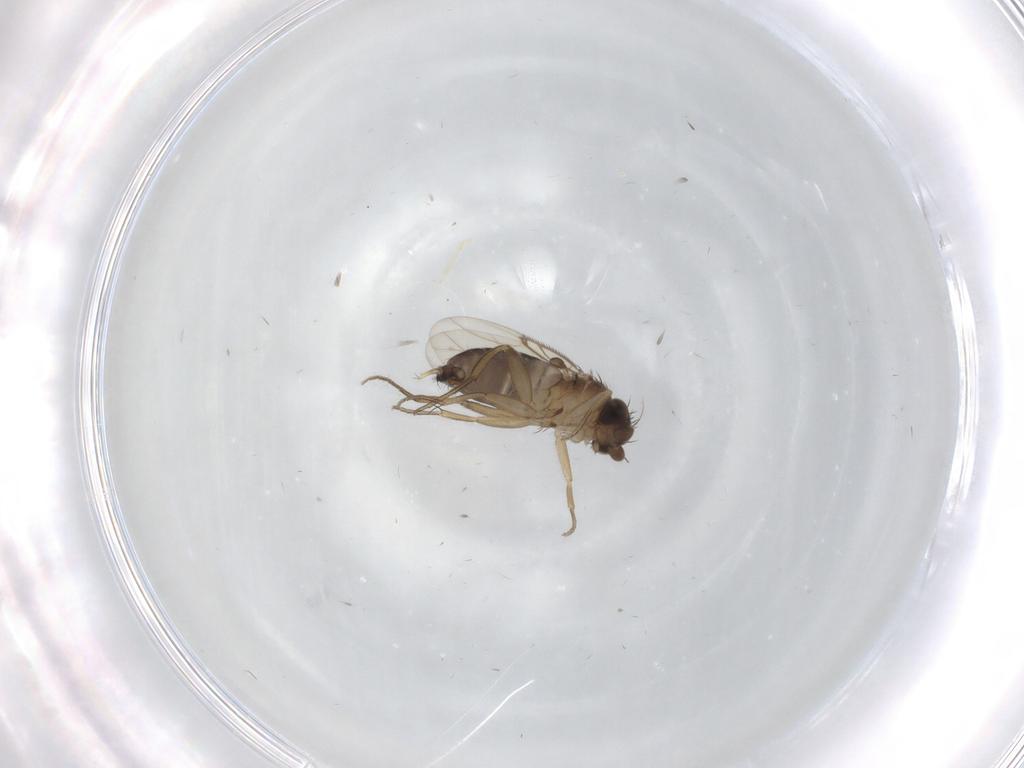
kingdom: Animalia
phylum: Arthropoda
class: Insecta
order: Diptera
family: Phoridae
